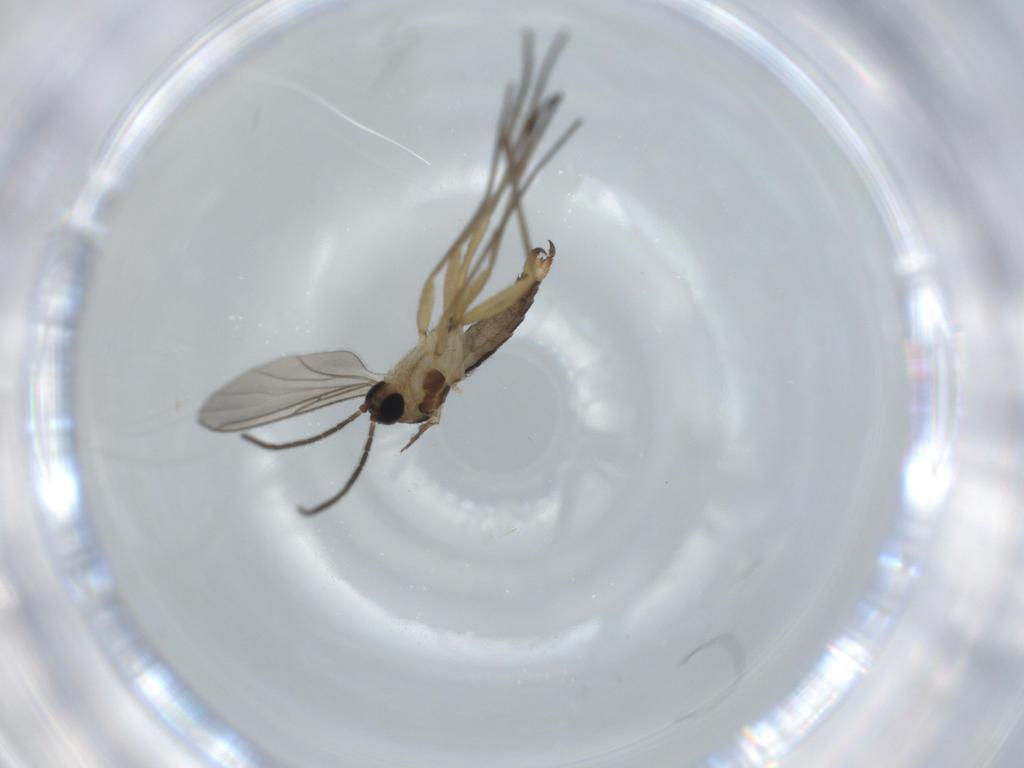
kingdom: Animalia
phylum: Arthropoda
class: Insecta
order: Diptera
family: Sciaridae
